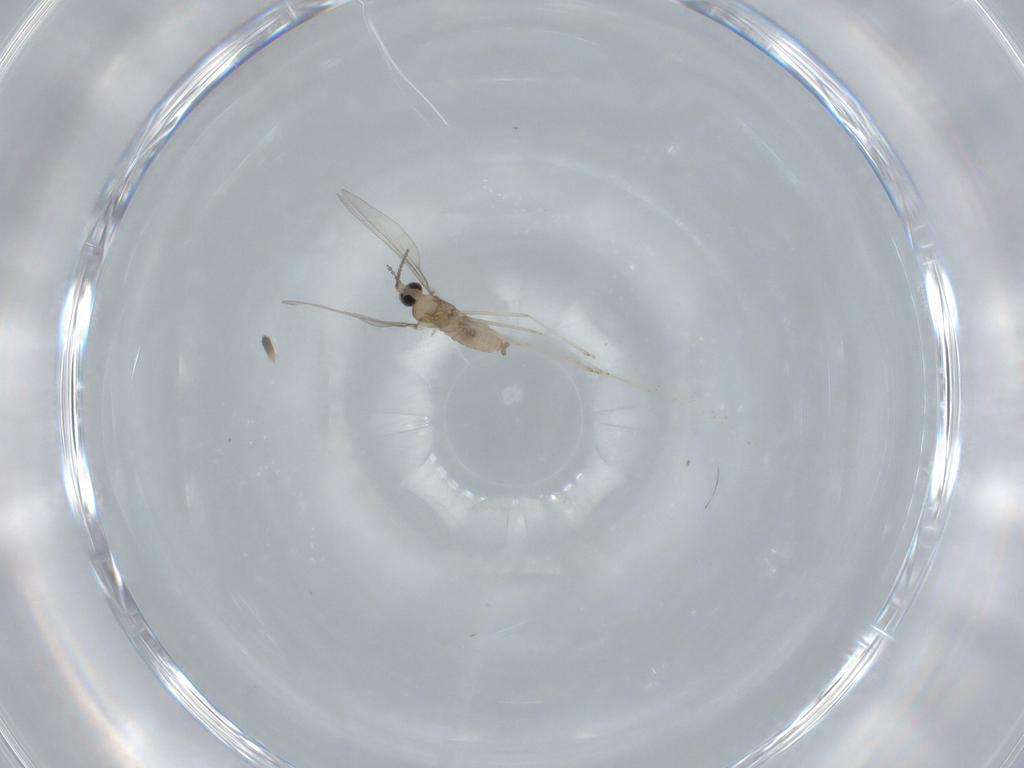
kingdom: Animalia
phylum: Arthropoda
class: Insecta
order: Diptera
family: Cecidomyiidae
